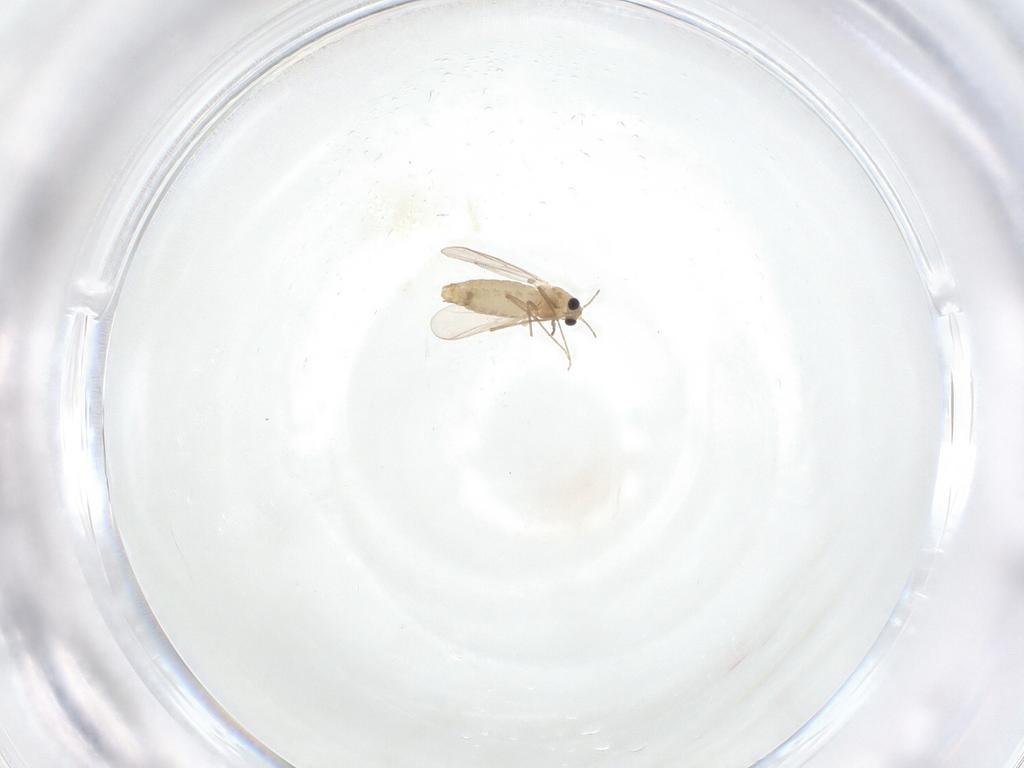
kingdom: Animalia
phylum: Arthropoda
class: Insecta
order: Diptera
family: Chironomidae
